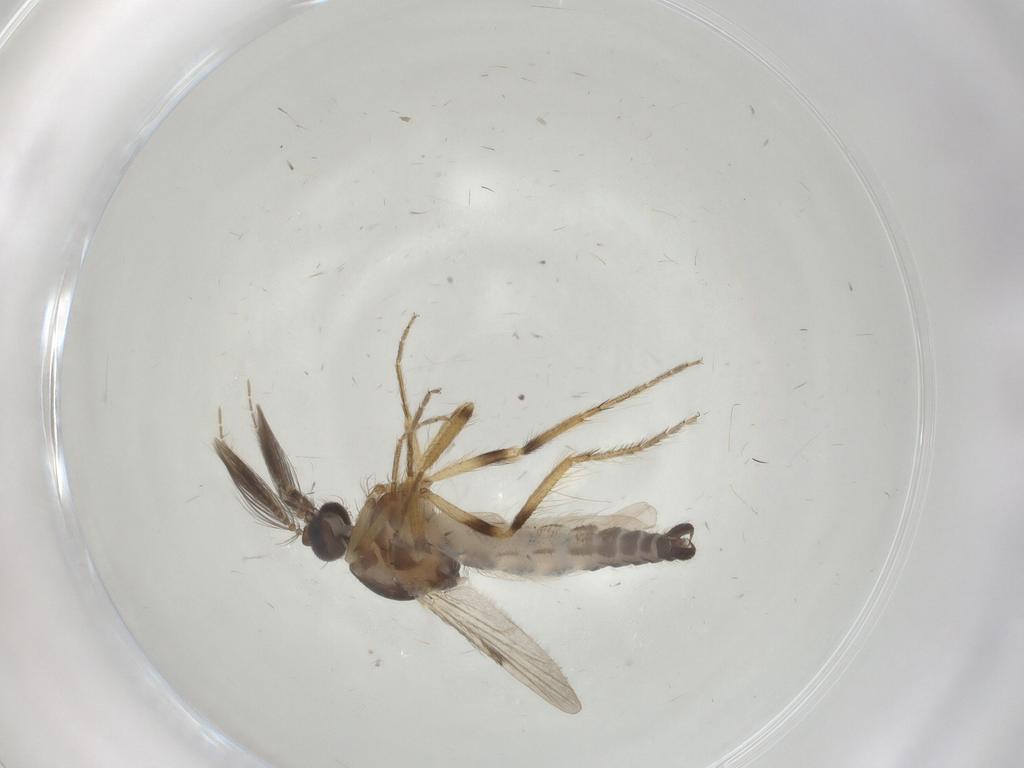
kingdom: Animalia
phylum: Arthropoda
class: Insecta
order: Diptera
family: Ceratopogonidae
